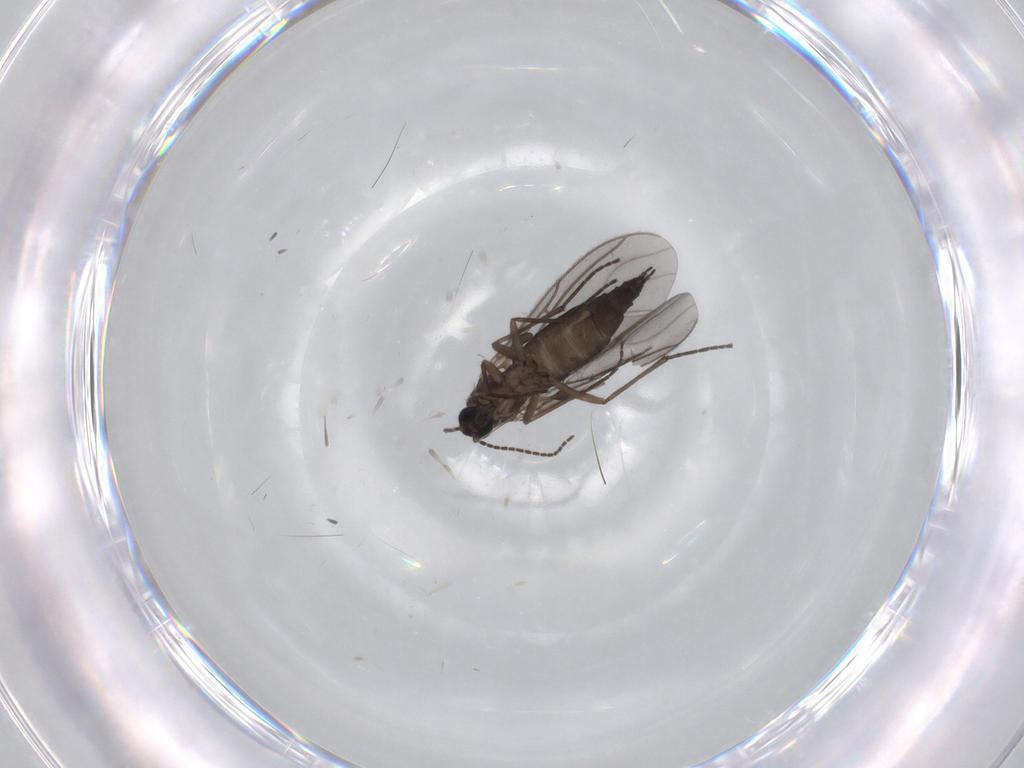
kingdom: Animalia
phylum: Arthropoda
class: Insecta
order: Diptera
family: Sciaridae
